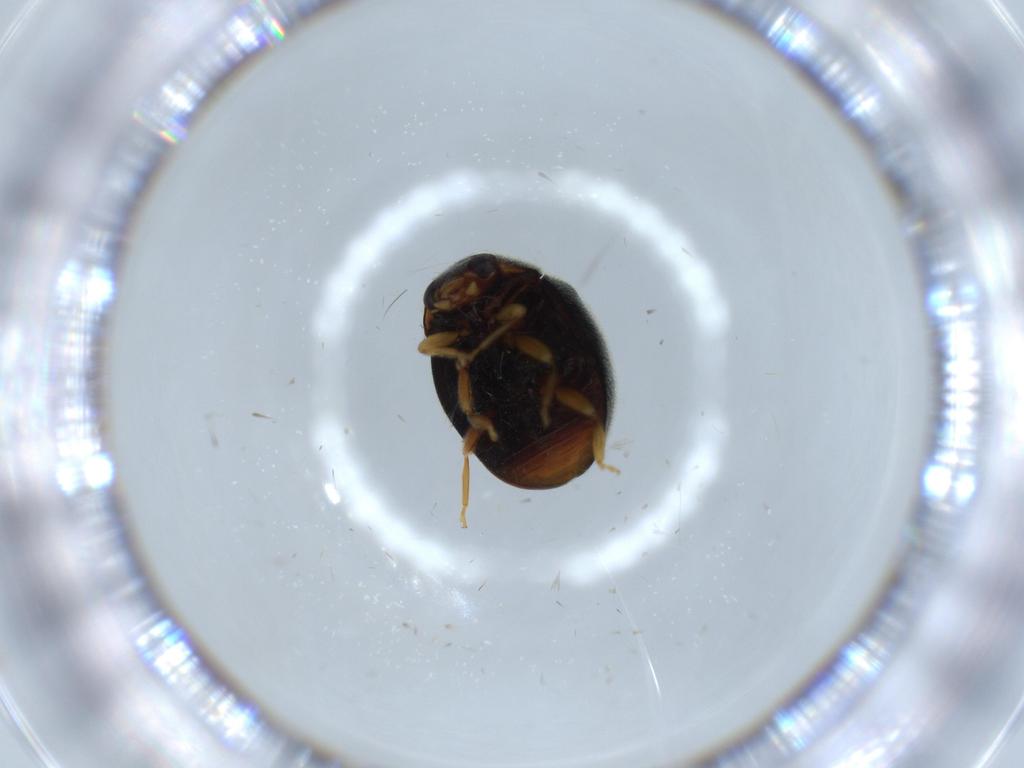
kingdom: Animalia
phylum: Arthropoda
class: Insecta
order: Coleoptera
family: Coccinellidae
